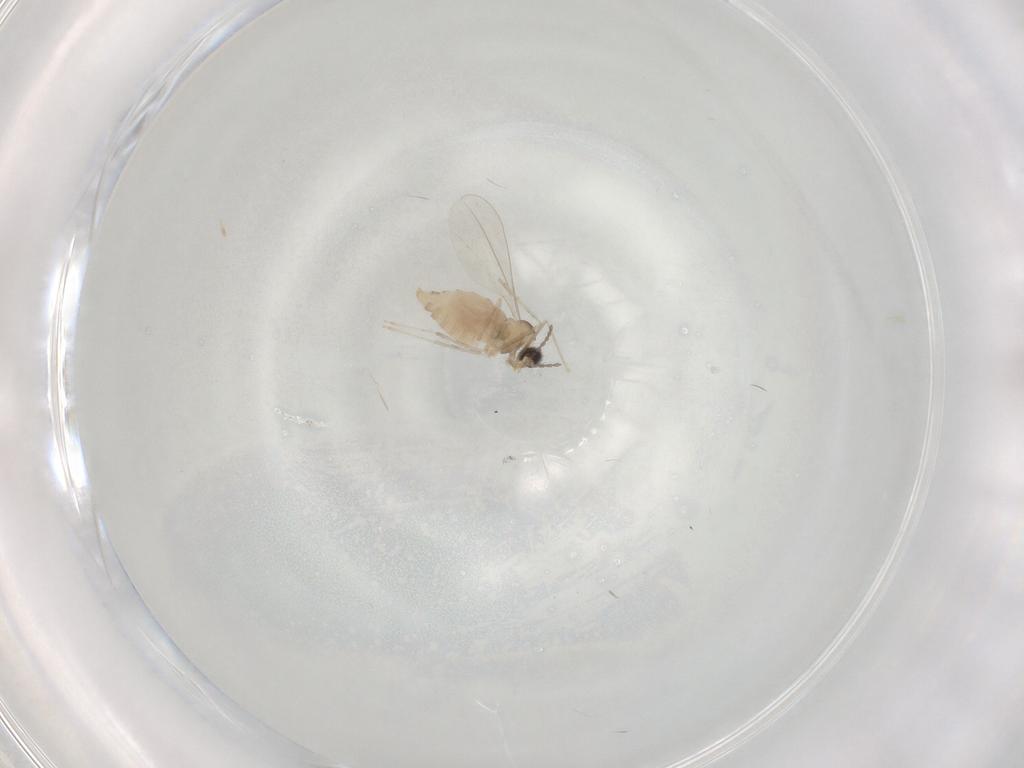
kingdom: Animalia
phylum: Arthropoda
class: Insecta
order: Diptera
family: Cecidomyiidae
